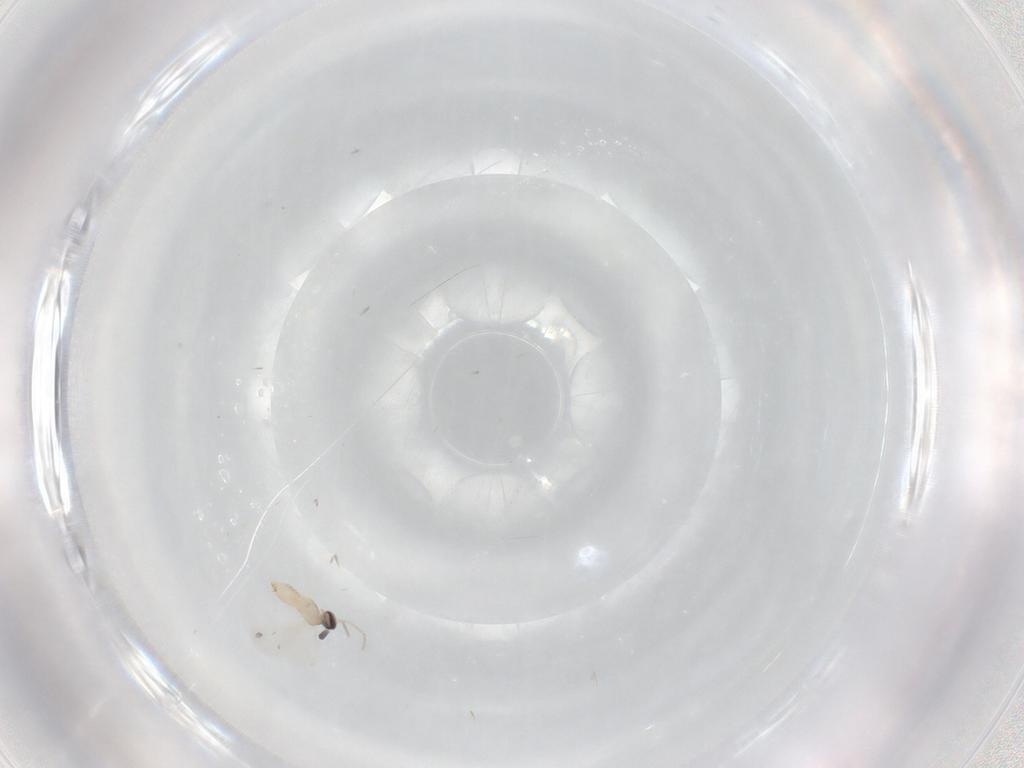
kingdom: Animalia
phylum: Arthropoda
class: Insecta
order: Diptera
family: Cecidomyiidae
